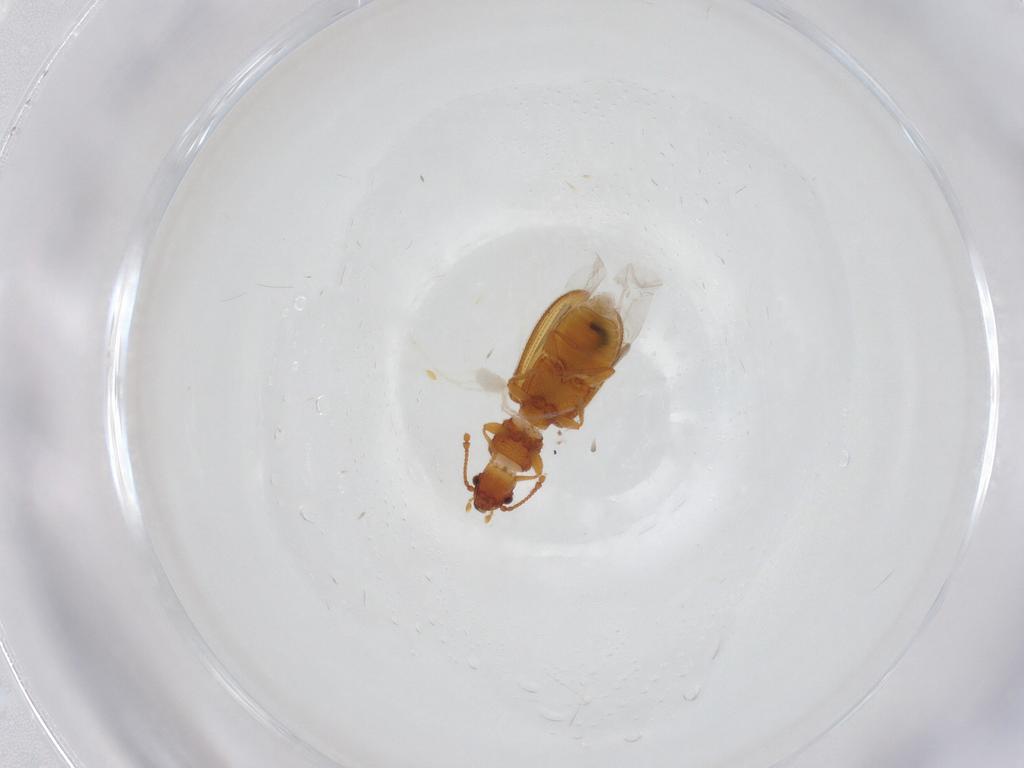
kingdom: Animalia
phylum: Arthropoda
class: Insecta
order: Coleoptera
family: Mycetophagidae
